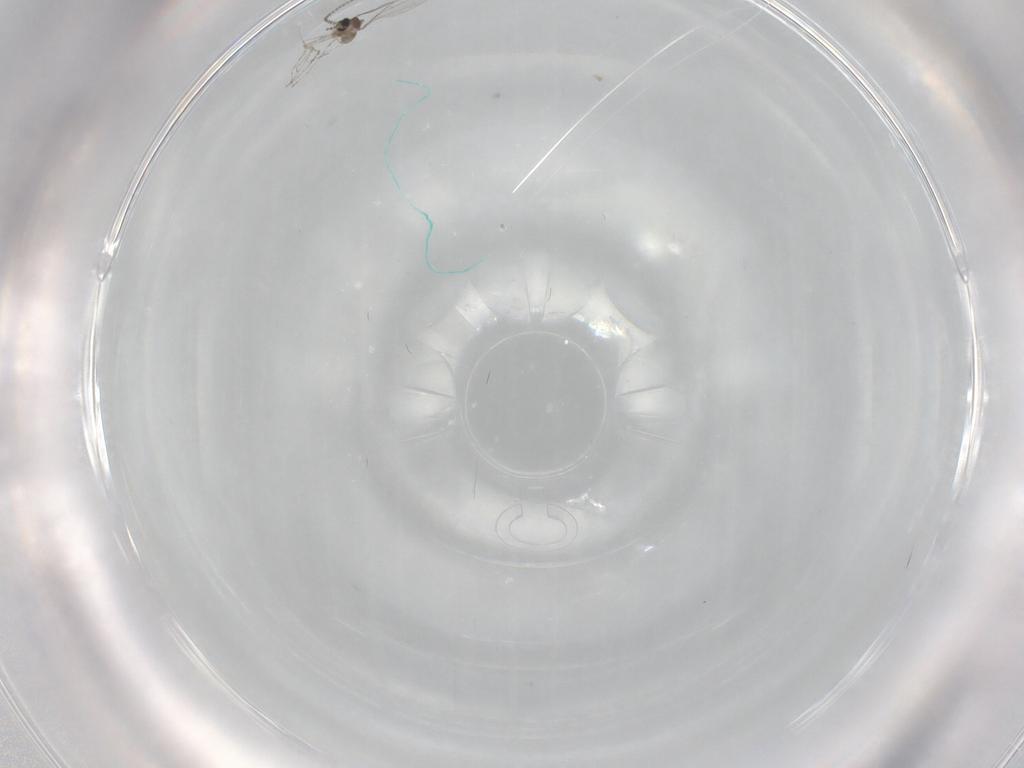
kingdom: Animalia
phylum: Arthropoda
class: Insecta
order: Diptera
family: Cecidomyiidae
